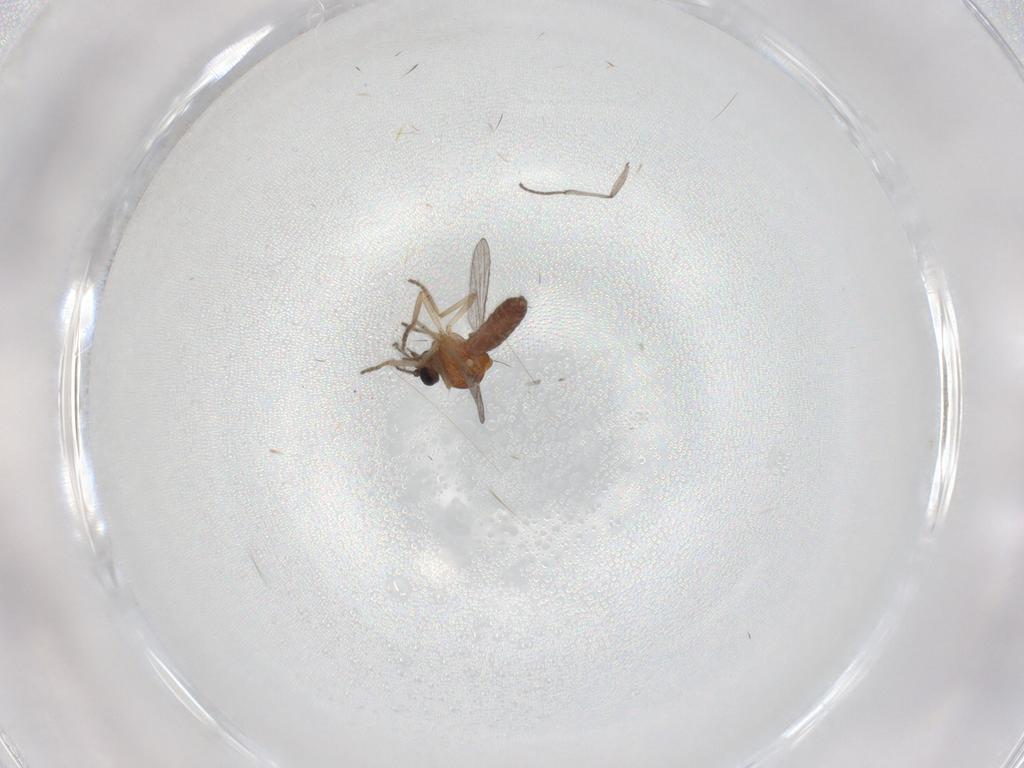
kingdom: Animalia
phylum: Arthropoda
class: Insecta
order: Diptera
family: Ceratopogonidae
